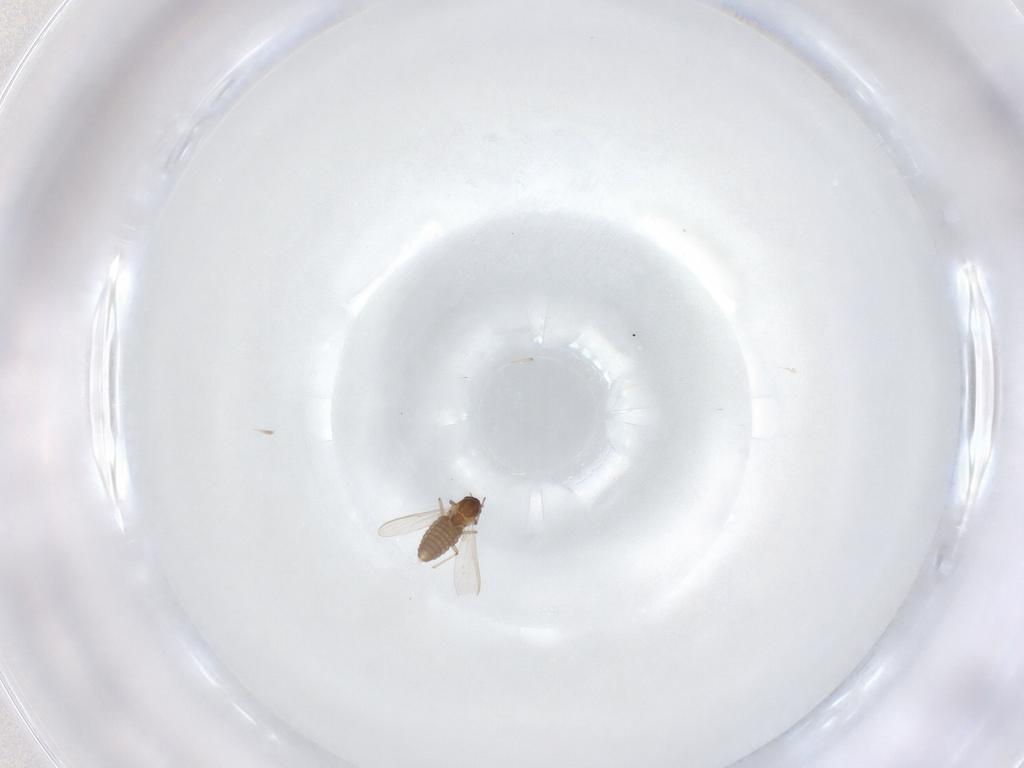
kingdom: Animalia
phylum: Arthropoda
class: Insecta
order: Diptera
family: Chironomidae
